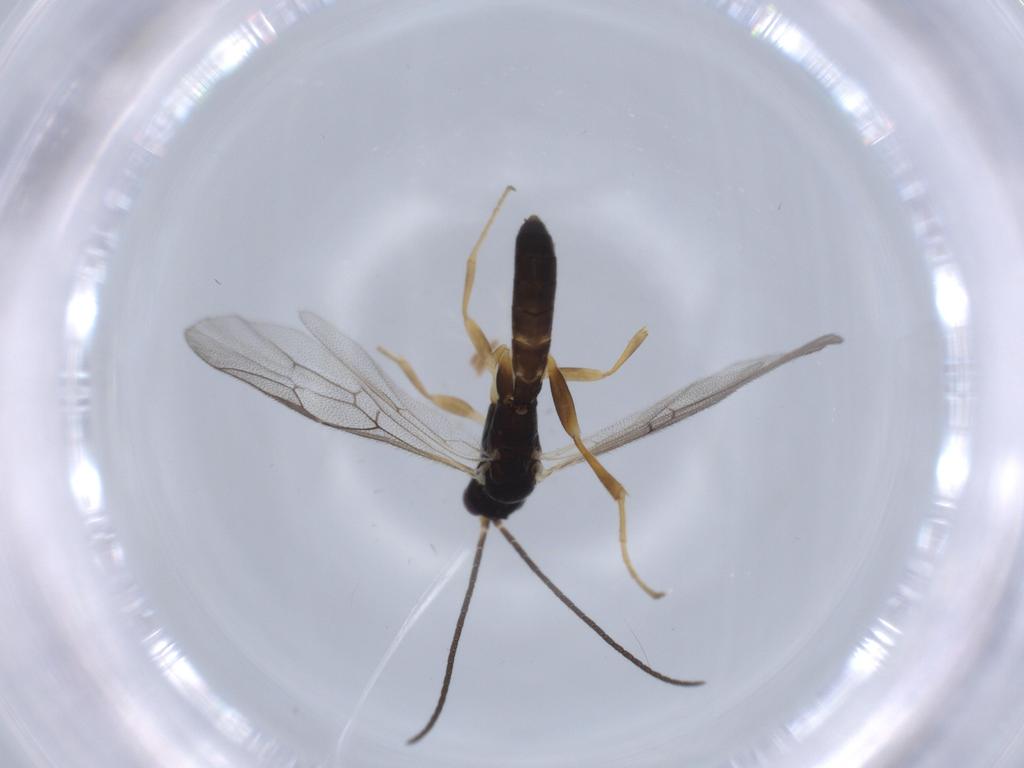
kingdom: Animalia
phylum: Arthropoda
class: Insecta
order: Hymenoptera
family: Ichneumonidae
